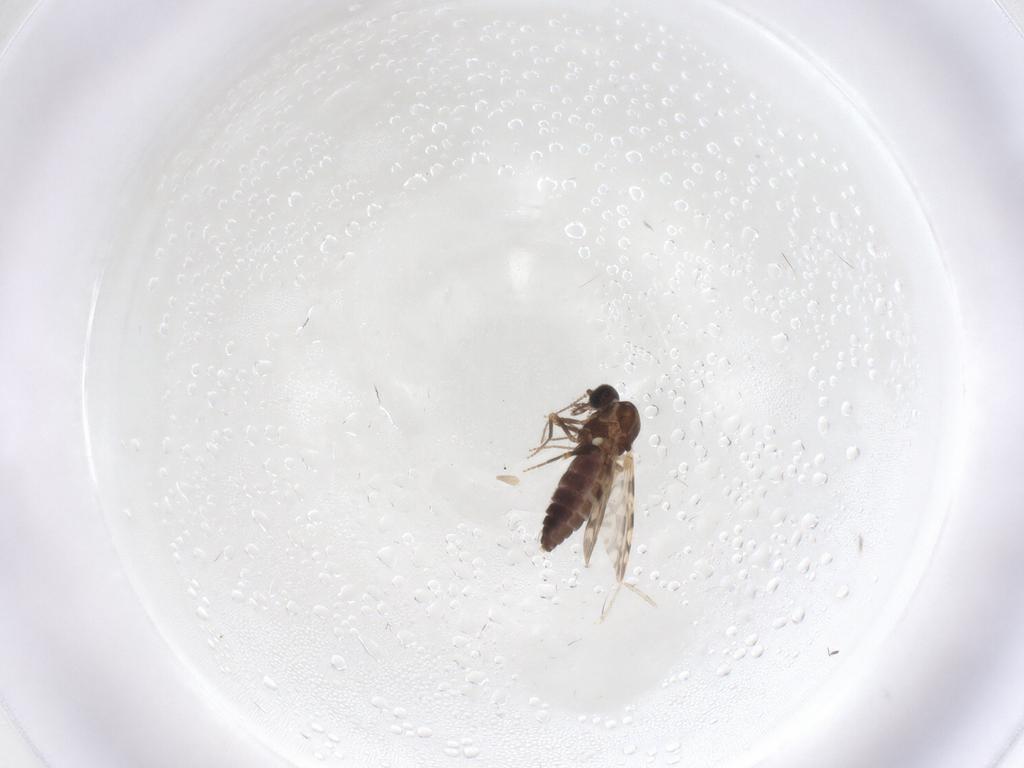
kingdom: Animalia
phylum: Arthropoda
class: Insecta
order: Diptera
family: Ceratopogonidae
